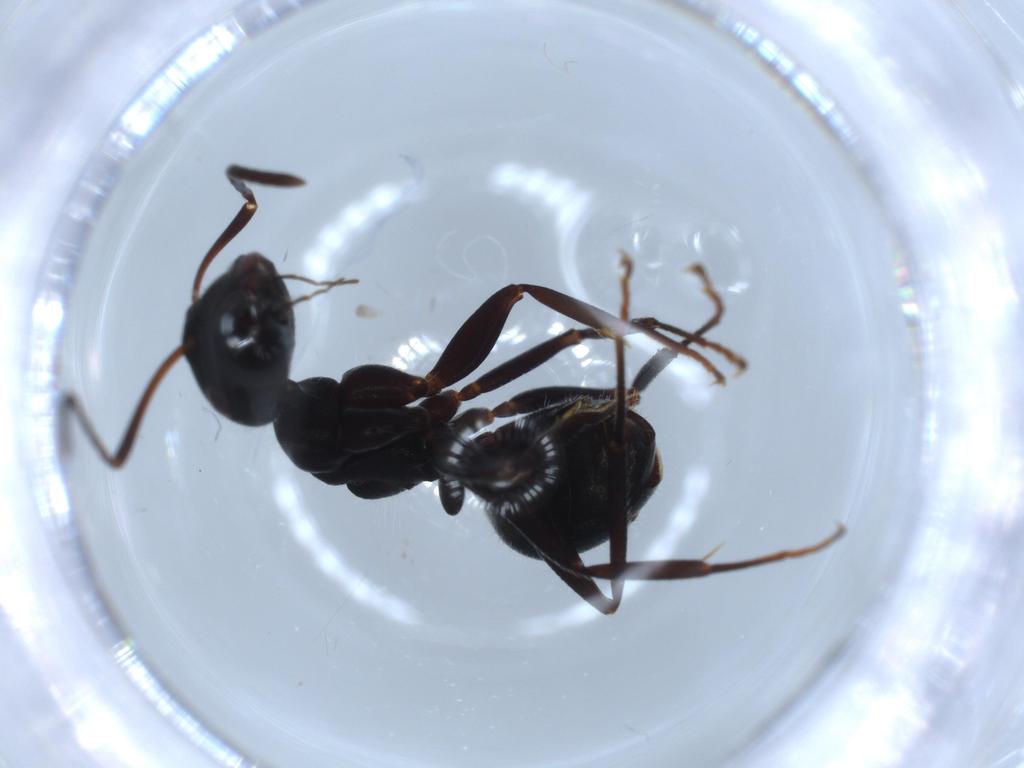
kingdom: Animalia
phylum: Arthropoda
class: Insecta
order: Hymenoptera
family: Formicidae
